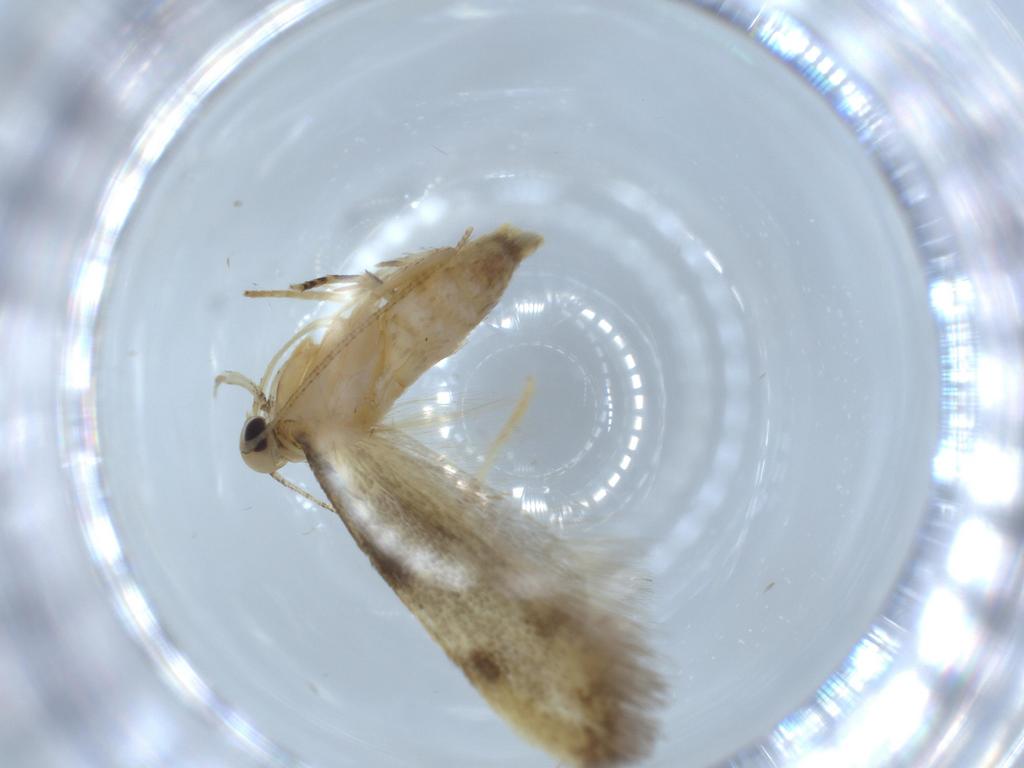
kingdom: Animalia
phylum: Arthropoda
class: Insecta
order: Lepidoptera
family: Autostichidae
